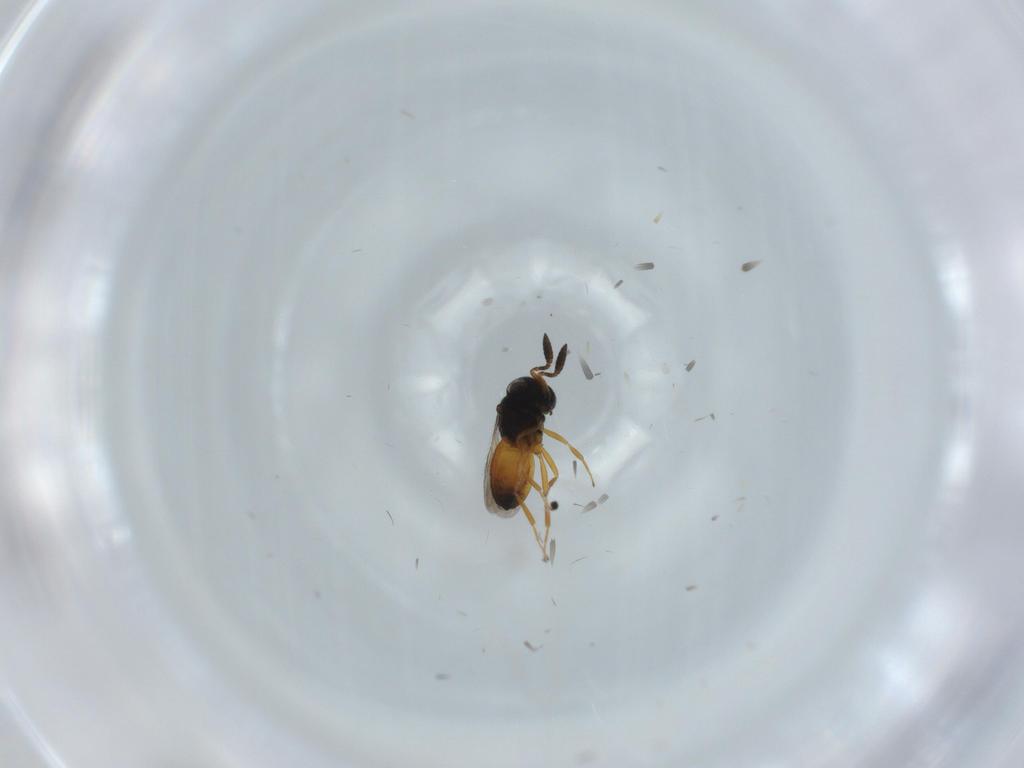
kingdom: Animalia
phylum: Arthropoda
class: Insecta
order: Hymenoptera
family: Scelionidae
